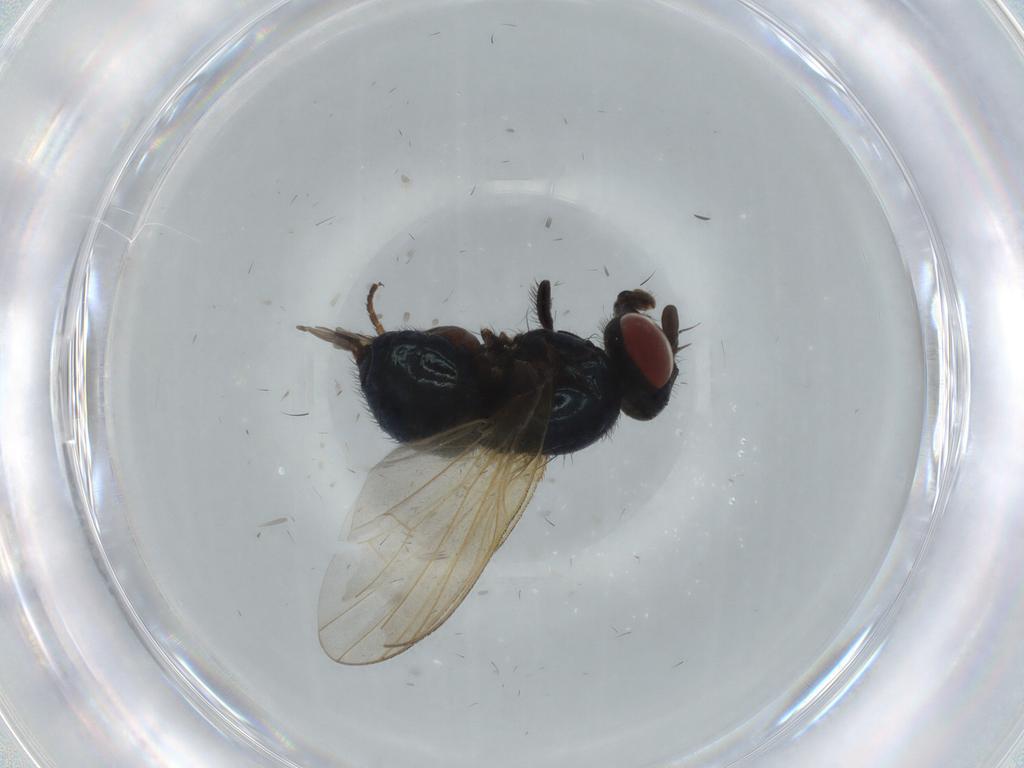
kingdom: Animalia
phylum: Arthropoda
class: Insecta
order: Diptera
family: Lonchaeidae
